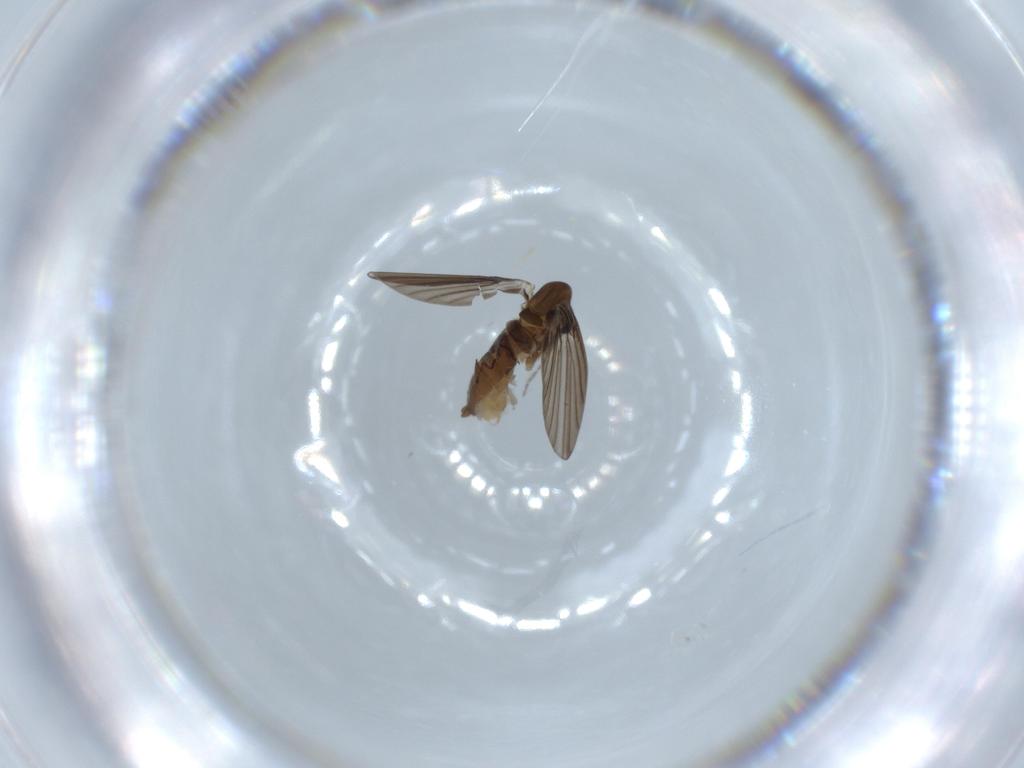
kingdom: Animalia
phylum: Arthropoda
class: Insecta
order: Diptera
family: Psychodidae
